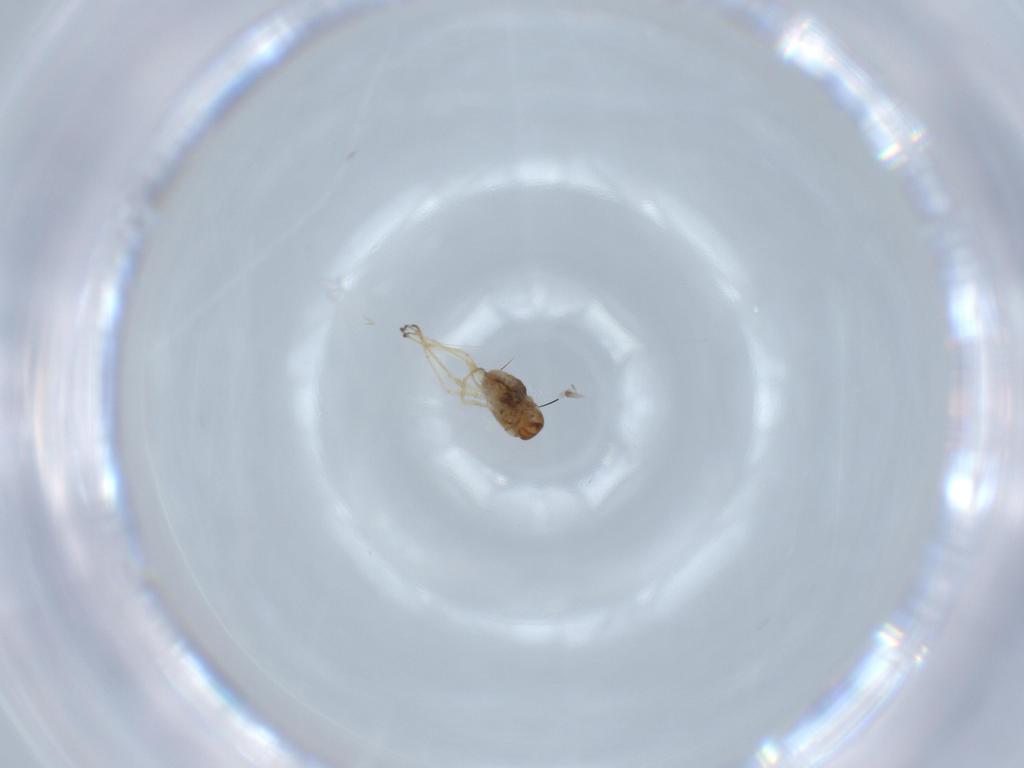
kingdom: Animalia
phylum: Arthropoda
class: Insecta
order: Diptera
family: Mythicomyiidae
